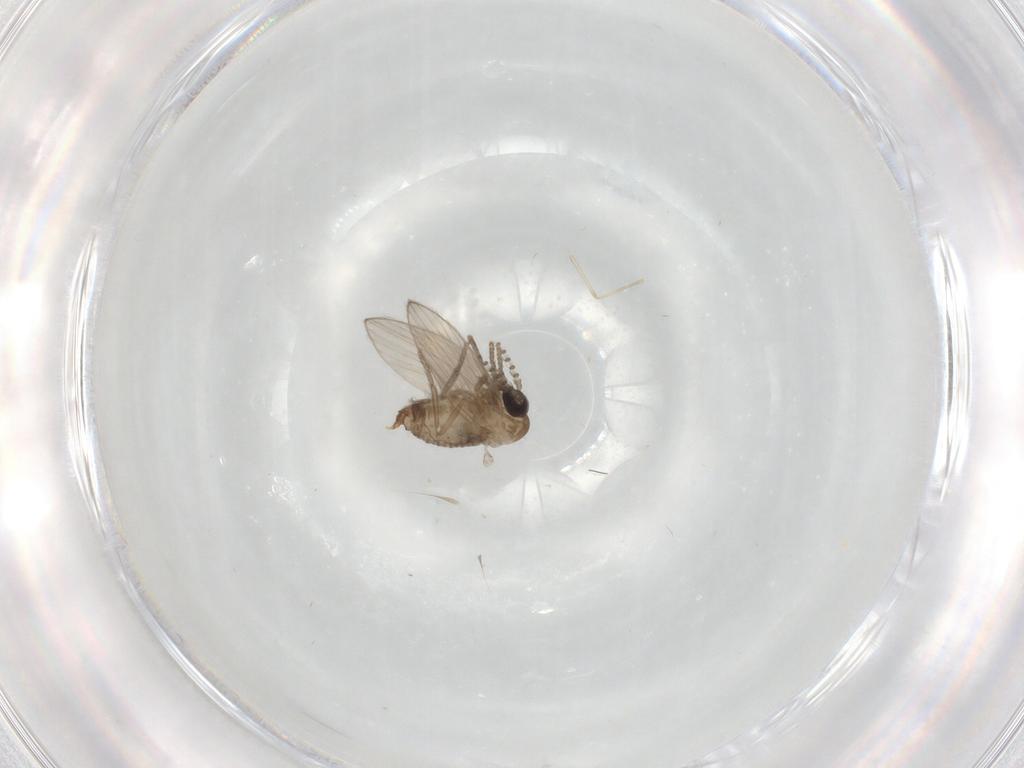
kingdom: Animalia
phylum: Arthropoda
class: Insecta
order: Diptera
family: Cecidomyiidae
